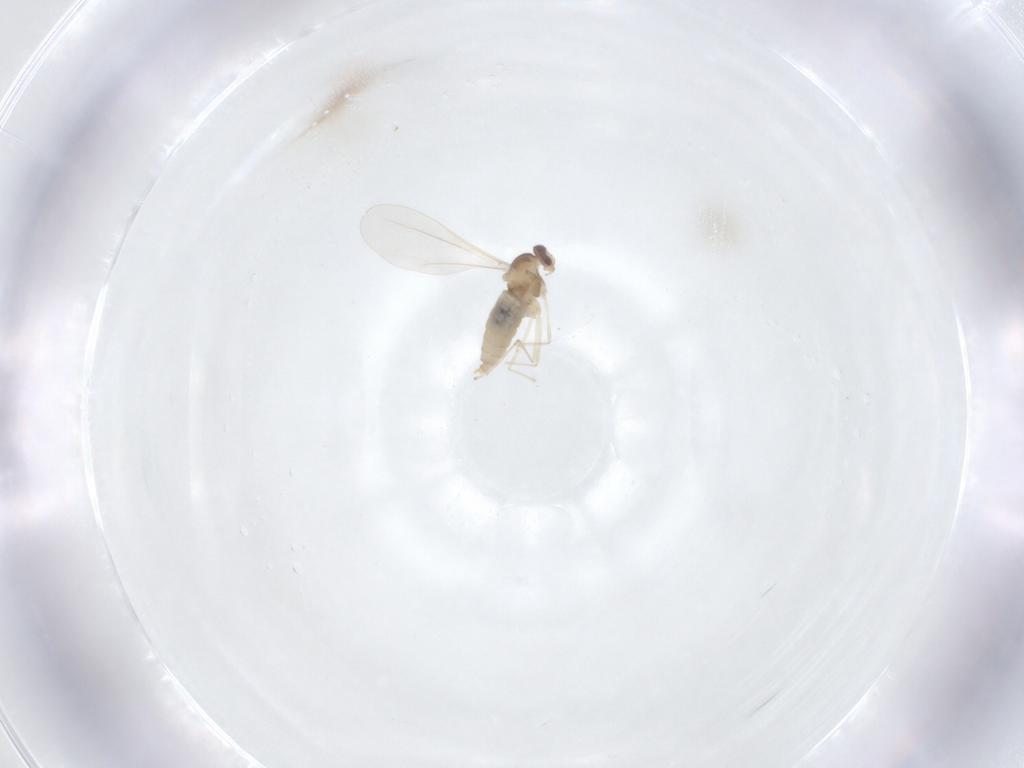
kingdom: Animalia
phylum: Arthropoda
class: Insecta
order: Diptera
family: Cecidomyiidae
